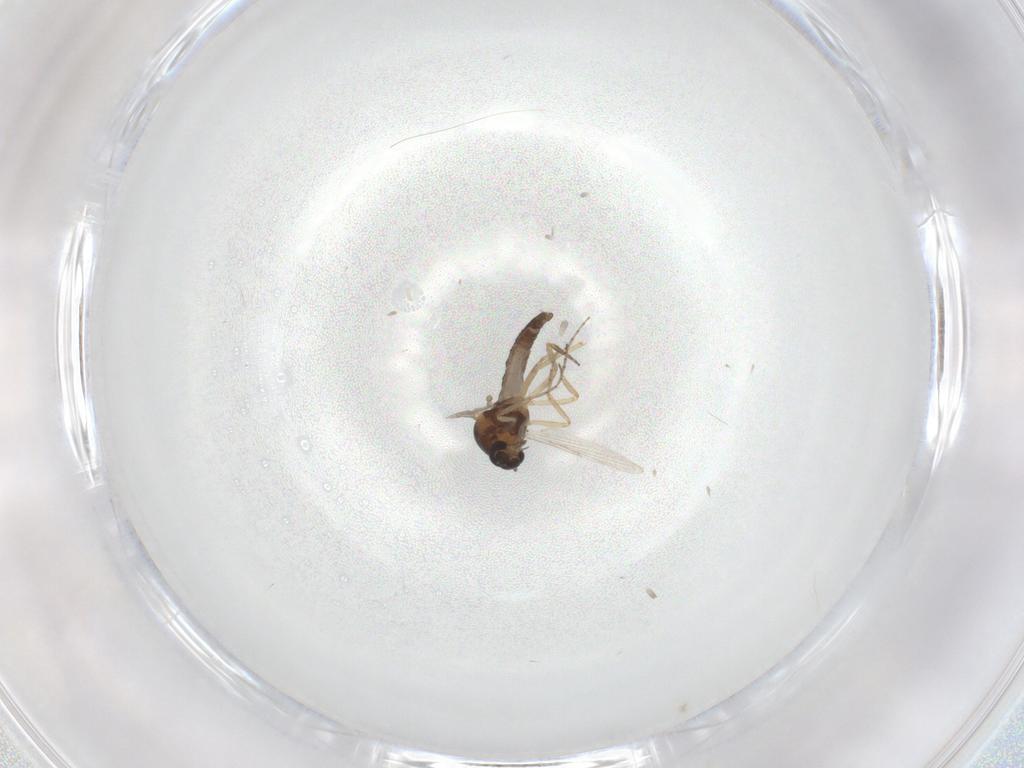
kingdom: Animalia
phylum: Arthropoda
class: Insecta
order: Diptera
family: Ceratopogonidae
